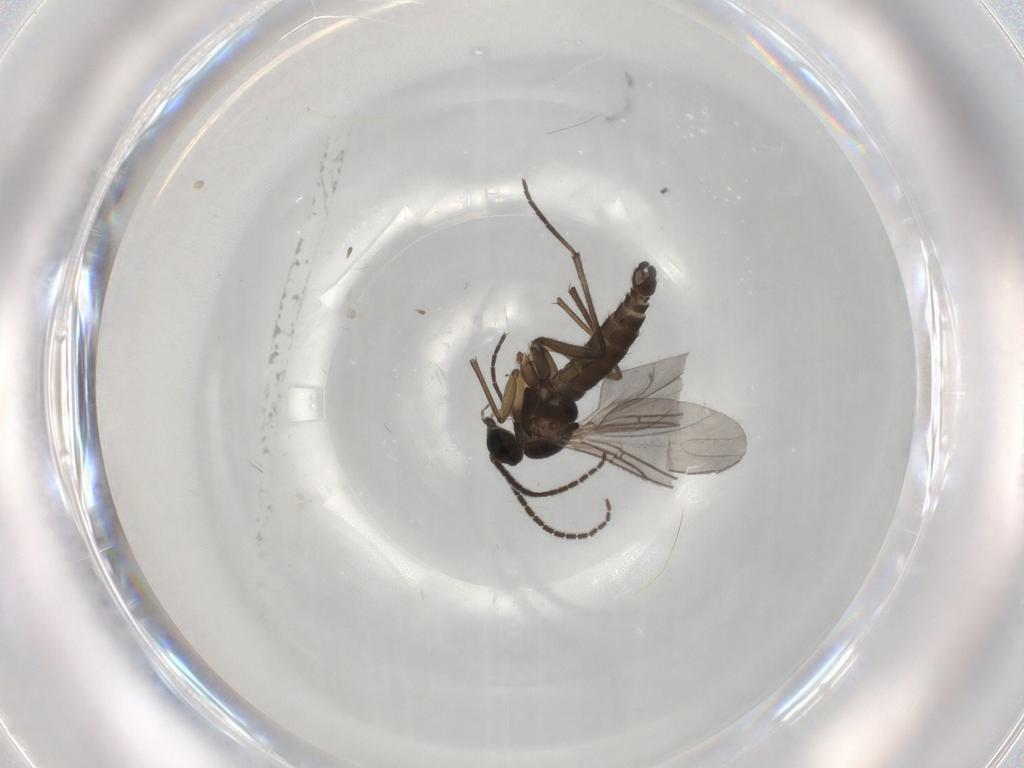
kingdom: Animalia
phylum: Arthropoda
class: Insecta
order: Diptera
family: Sciaridae
